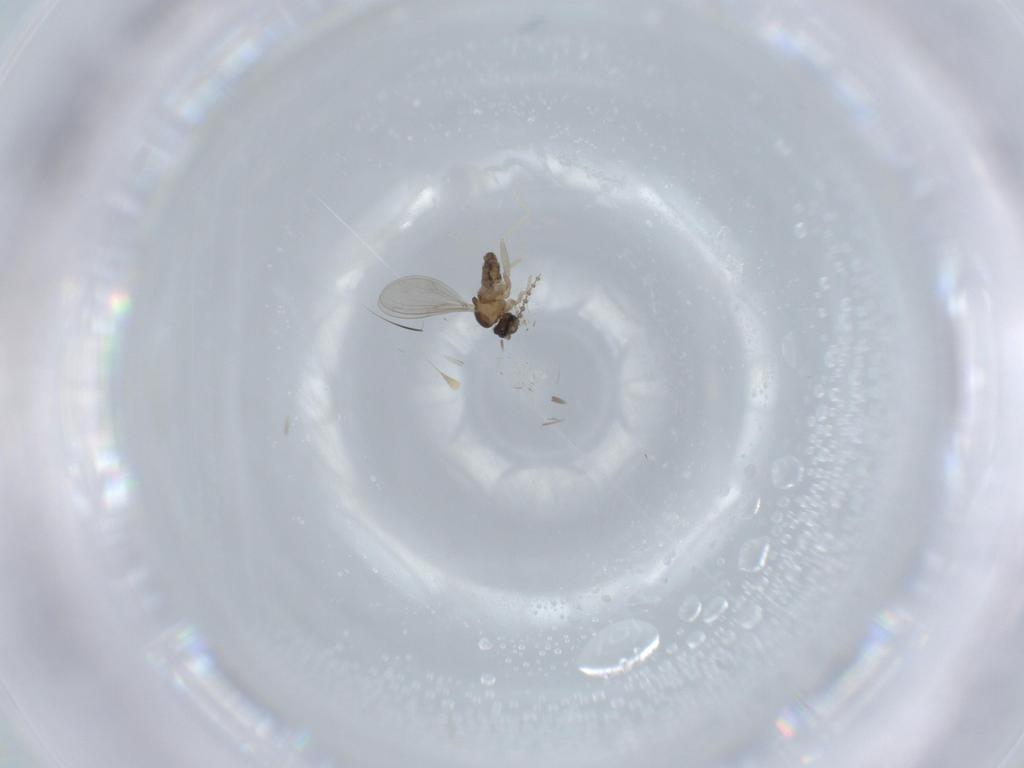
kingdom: Animalia
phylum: Arthropoda
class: Insecta
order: Diptera
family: Cecidomyiidae
